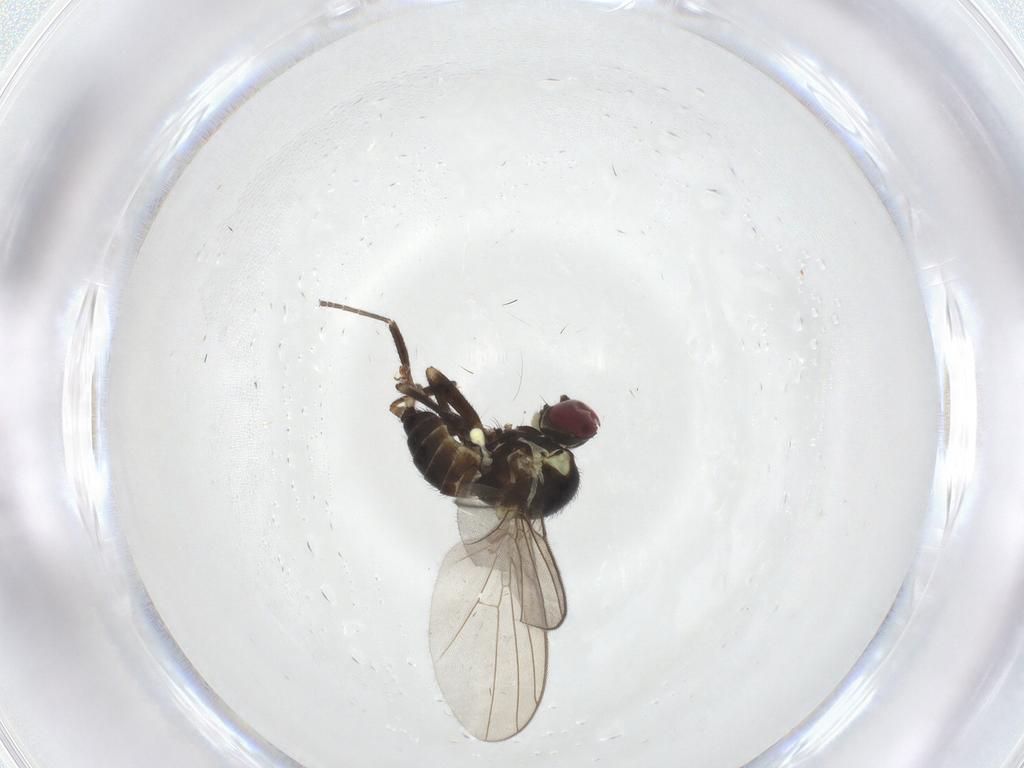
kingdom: Animalia
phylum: Arthropoda
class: Insecta
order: Diptera
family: Agromyzidae
